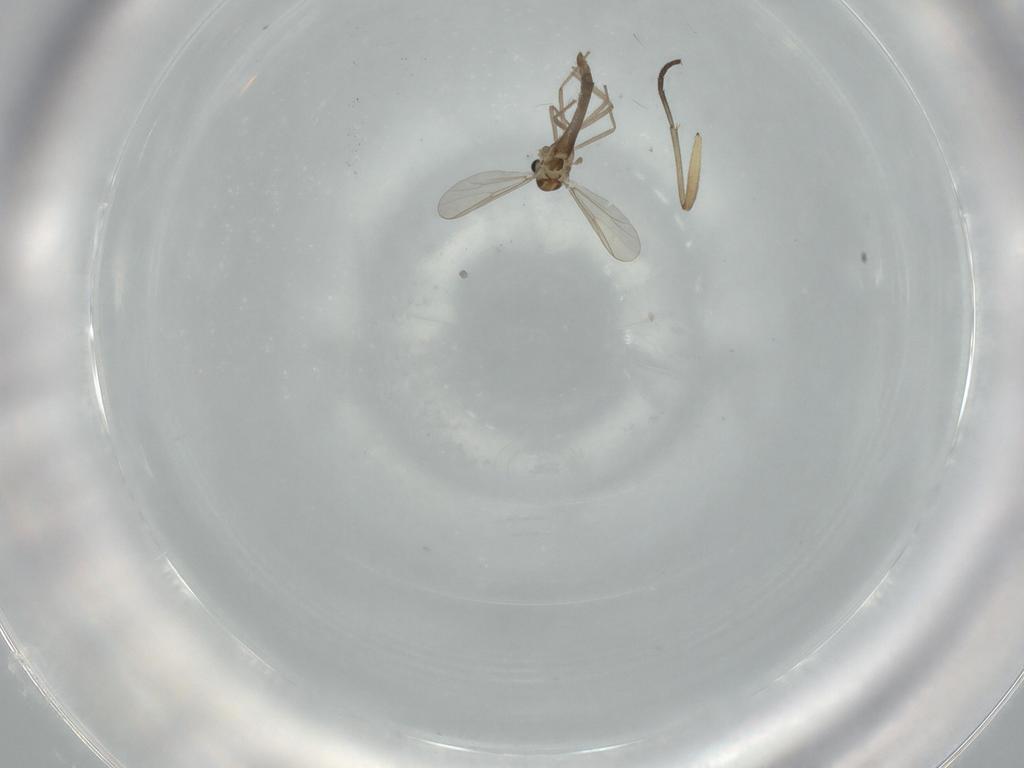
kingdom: Animalia
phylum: Arthropoda
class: Insecta
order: Diptera
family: Chironomidae
